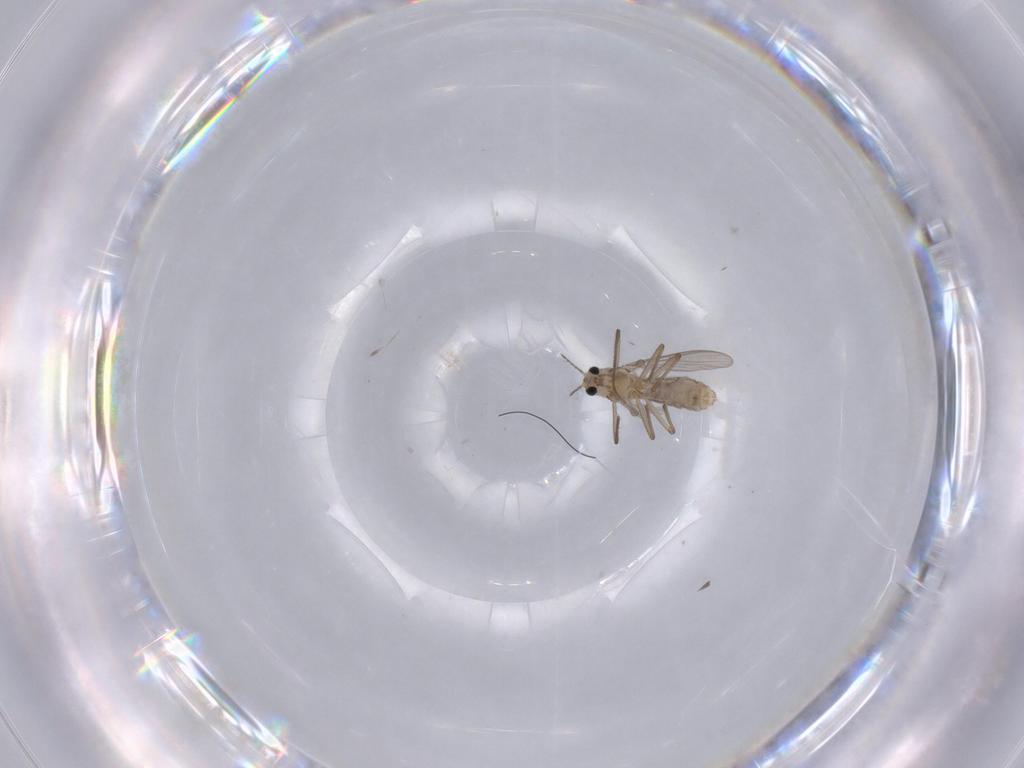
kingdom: Animalia
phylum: Arthropoda
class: Insecta
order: Diptera
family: Chironomidae
